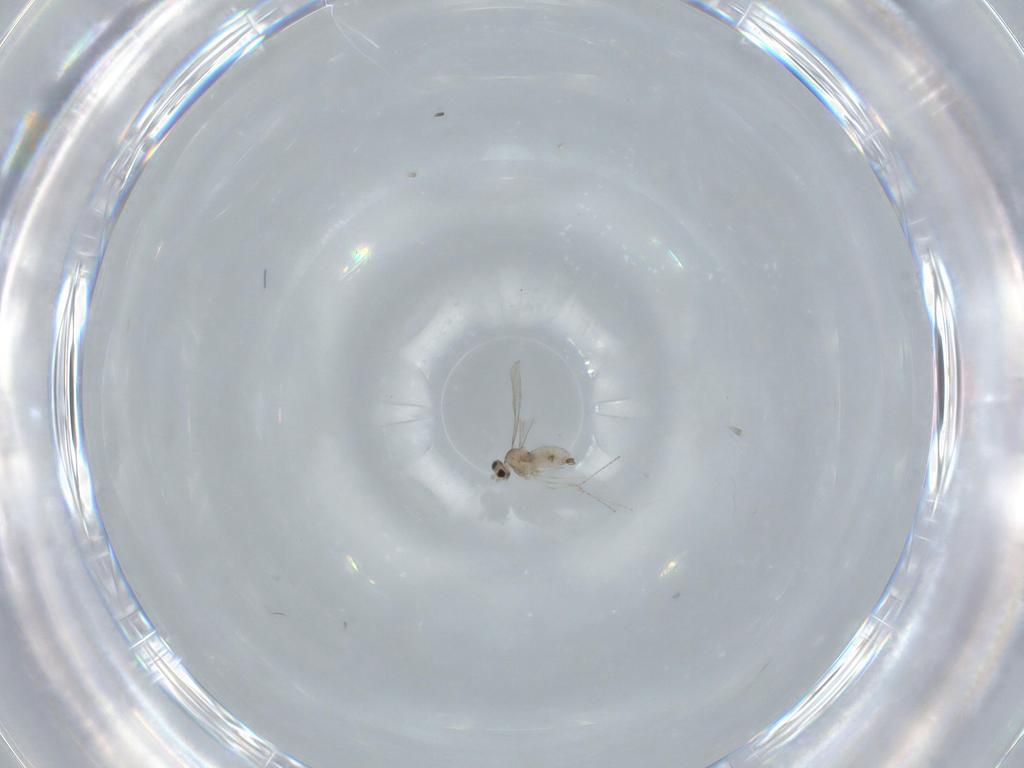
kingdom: Animalia
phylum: Arthropoda
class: Insecta
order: Diptera
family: Cecidomyiidae
